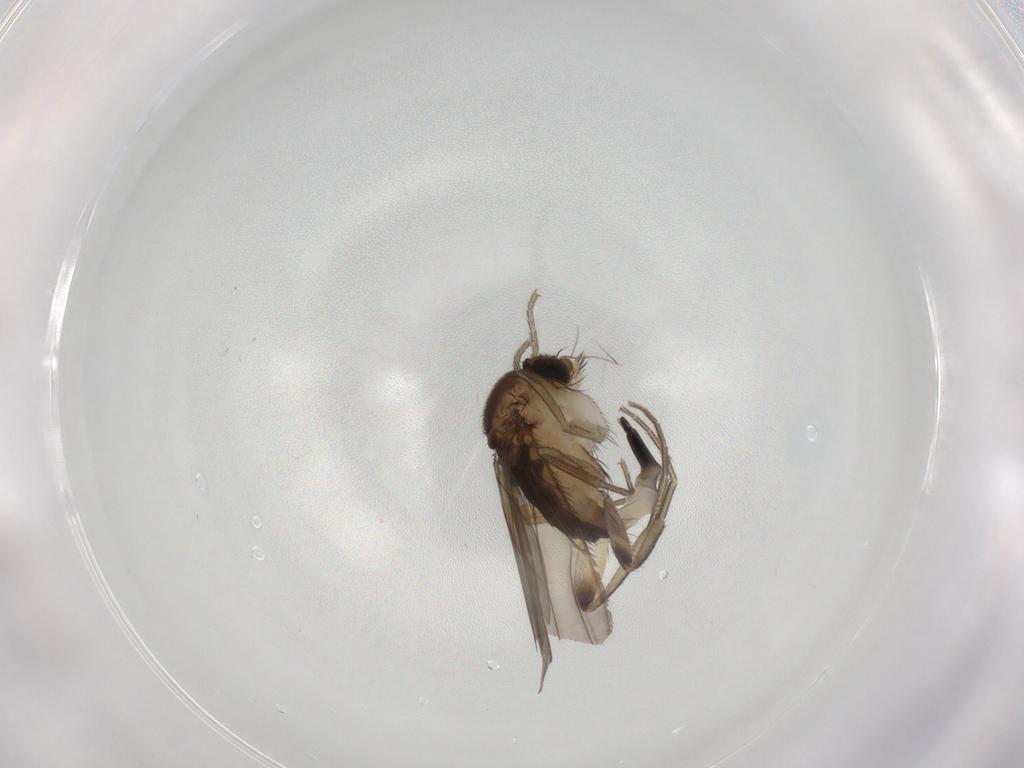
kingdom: Animalia
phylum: Arthropoda
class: Insecta
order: Diptera
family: Phoridae
